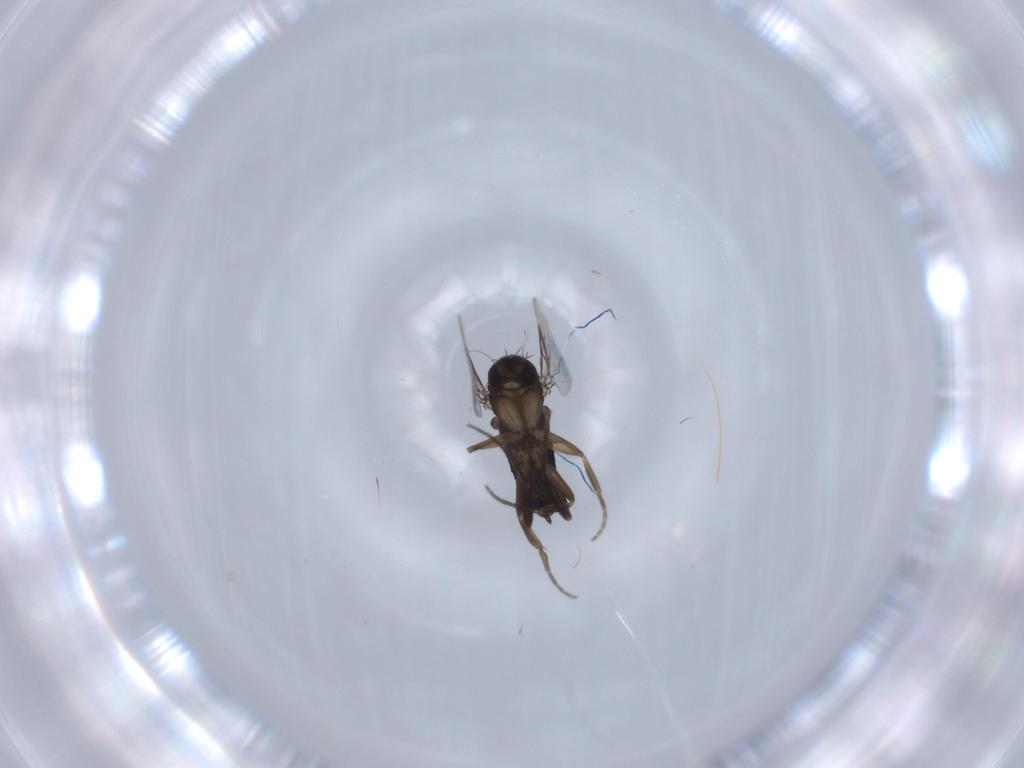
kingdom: Animalia
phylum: Arthropoda
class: Insecta
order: Diptera
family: Phoridae
